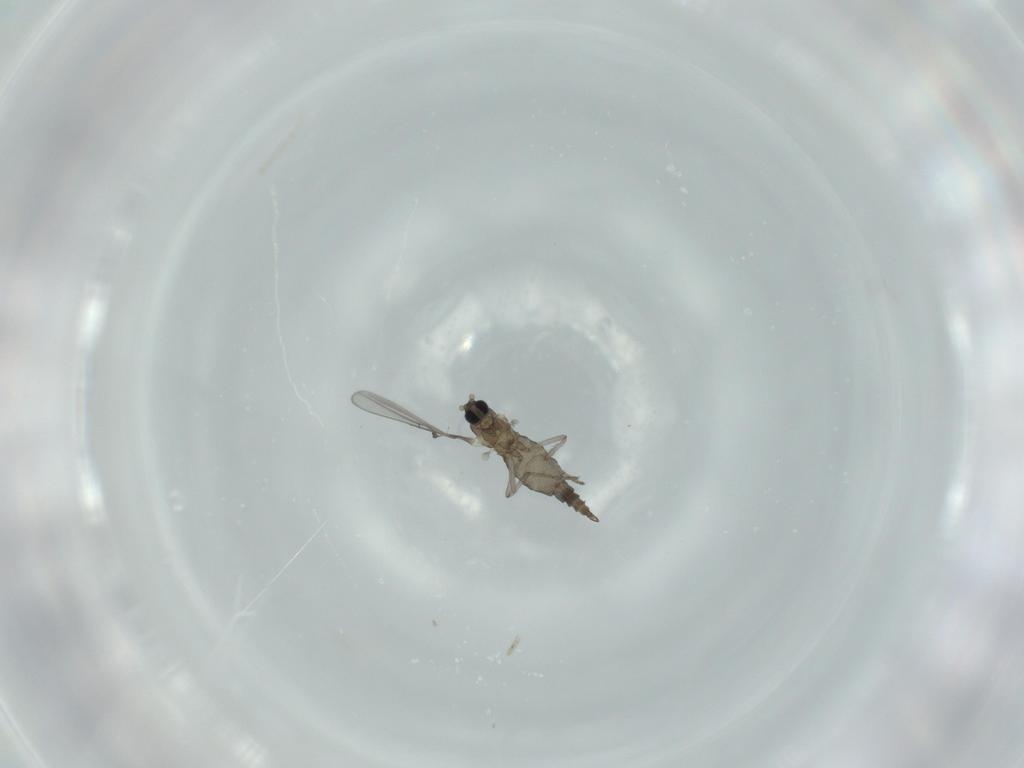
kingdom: Animalia
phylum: Arthropoda
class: Insecta
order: Diptera
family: Cecidomyiidae
